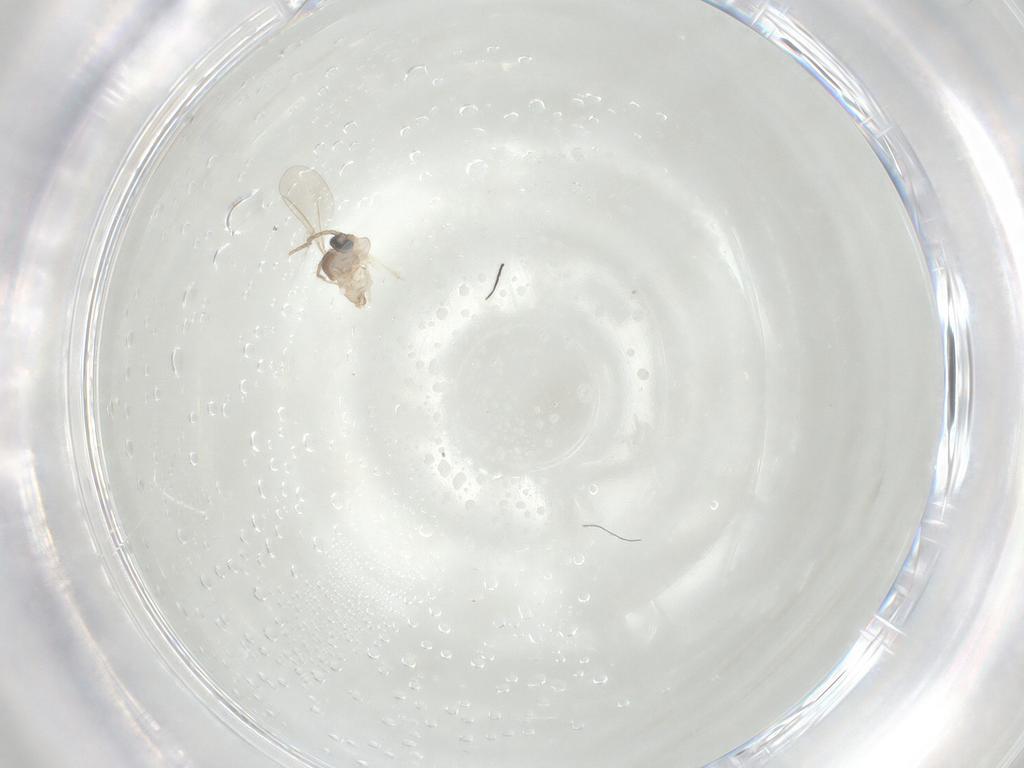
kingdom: Animalia
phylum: Arthropoda
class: Insecta
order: Diptera
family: Cecidomyiidae
